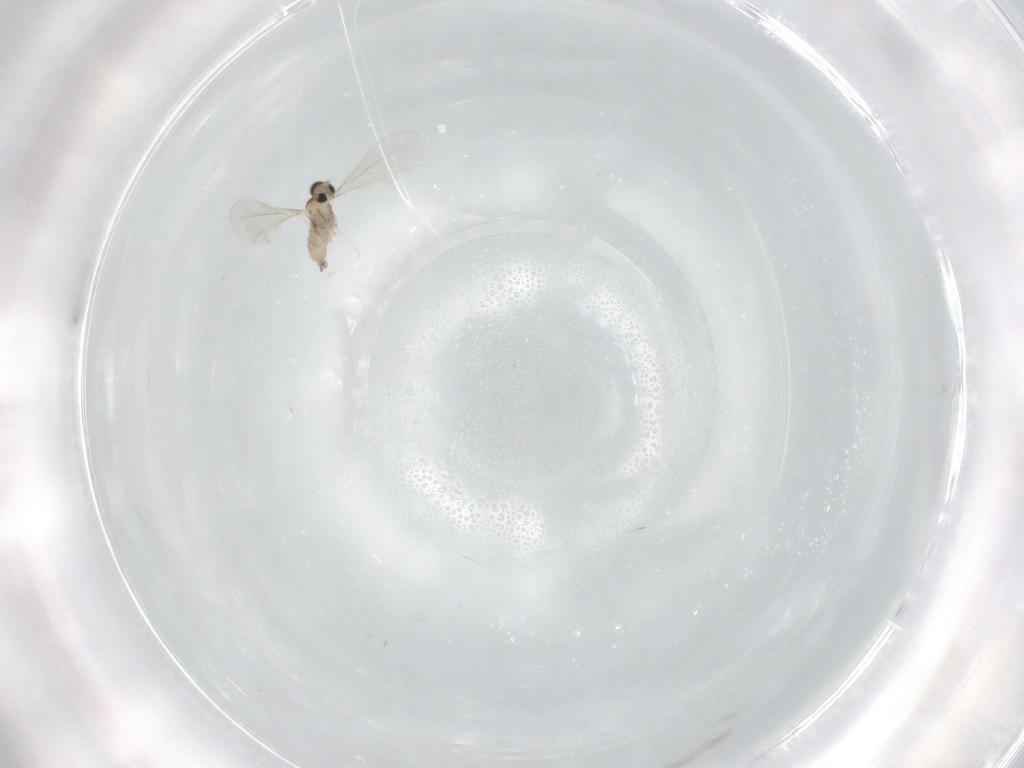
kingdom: Animalia
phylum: Arthropoda
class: Insecta
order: Diptera
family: Cecidomyiidae
